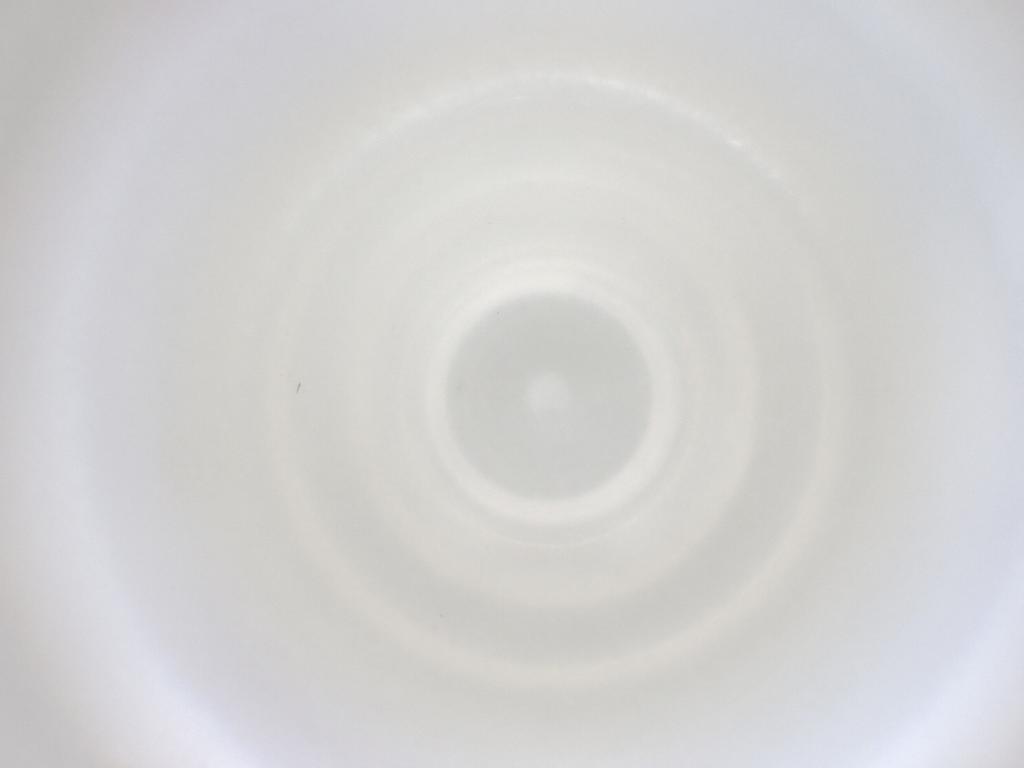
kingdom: Animalia
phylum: Arthropoda
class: Insecta
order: Diptera
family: Cecidomyiidae
